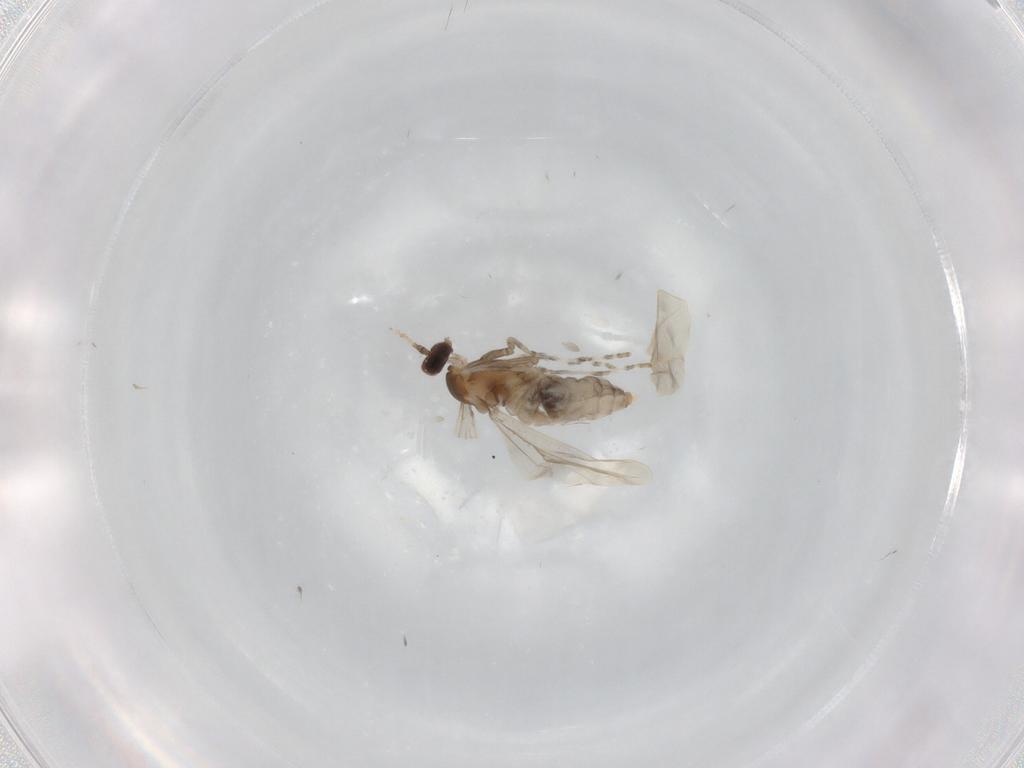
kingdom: Animalia
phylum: Arthropoda
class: Insecta
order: Diptera
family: Cecidomyiidae
